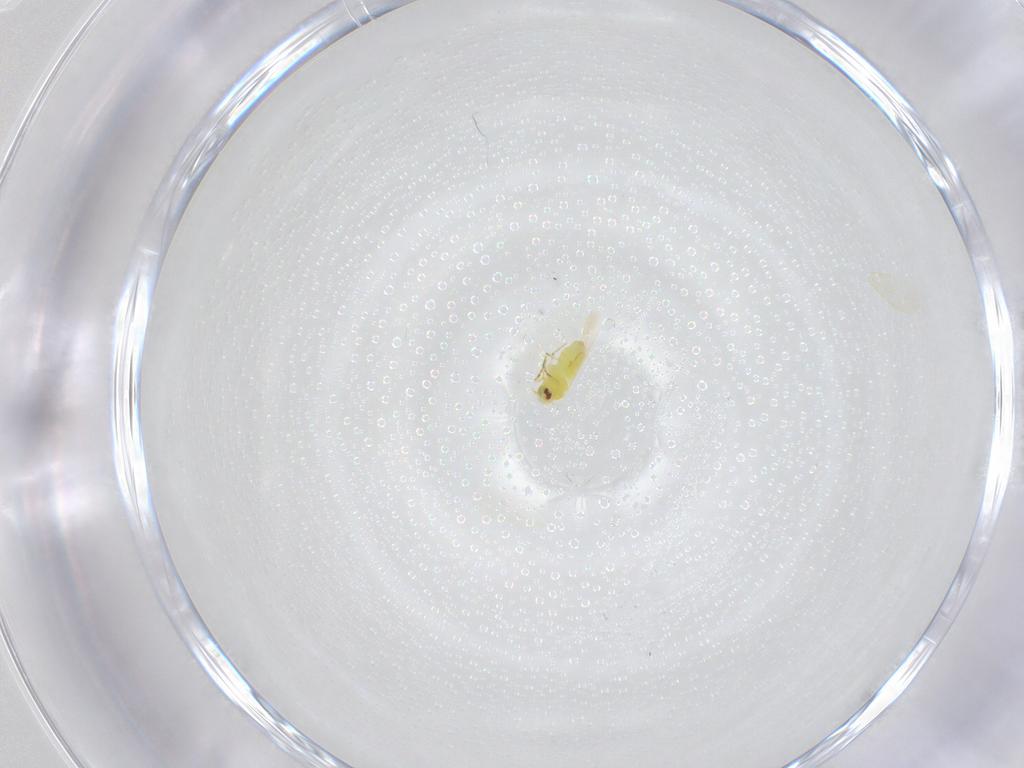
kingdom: Animalia
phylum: Arthropoda
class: Insecta
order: Hemiptera
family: Aleyrodidae
